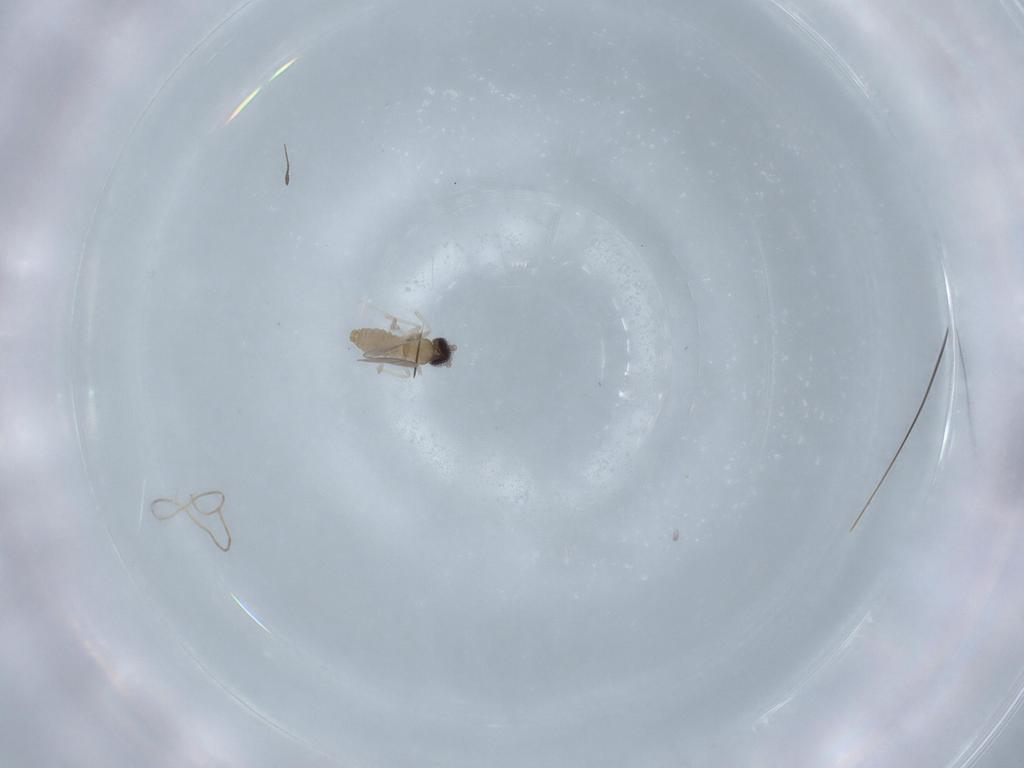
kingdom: Animalia
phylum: Arthropoda
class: Insecta
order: Diptera
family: Cecidomyiidae
